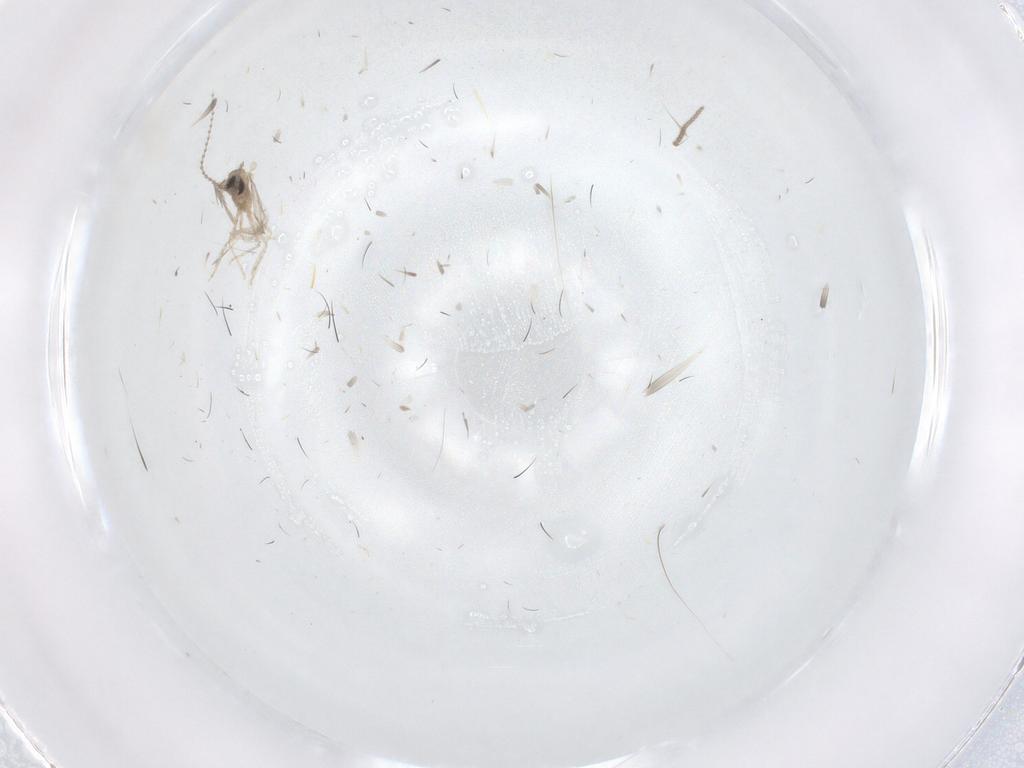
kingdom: Animalia
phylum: Arthropoda
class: Insecta
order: Diptera
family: Sciaridae
